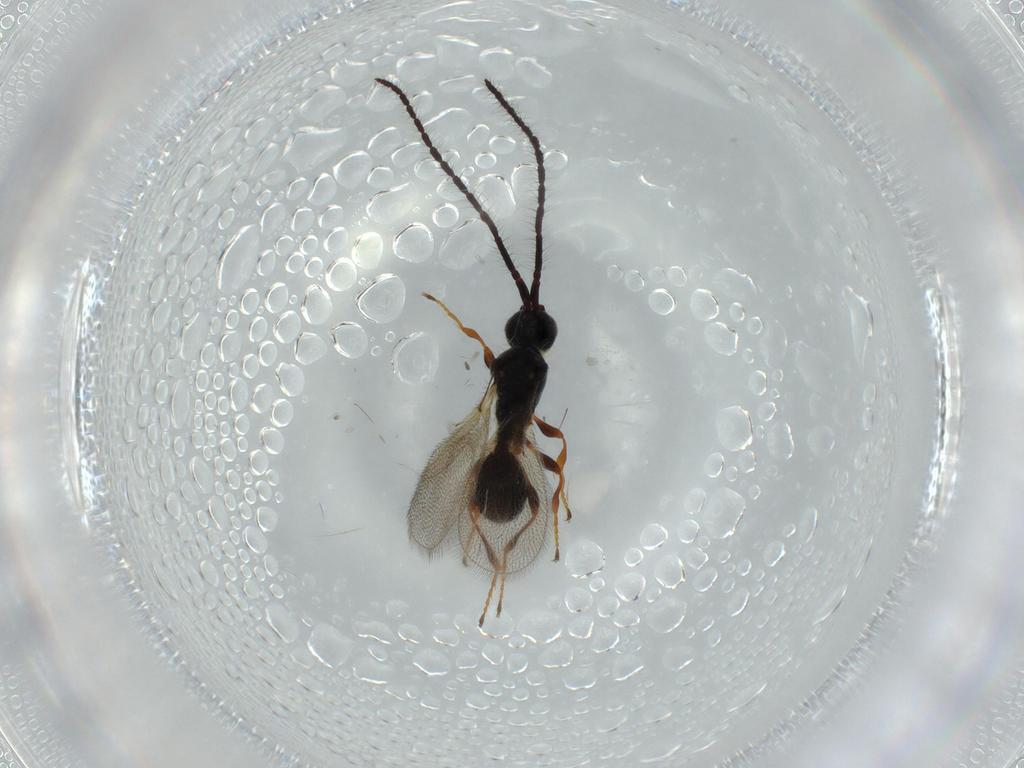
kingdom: Animalia
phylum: Arthropoda
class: Insecta
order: Hymenoptera
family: Diapriidae
